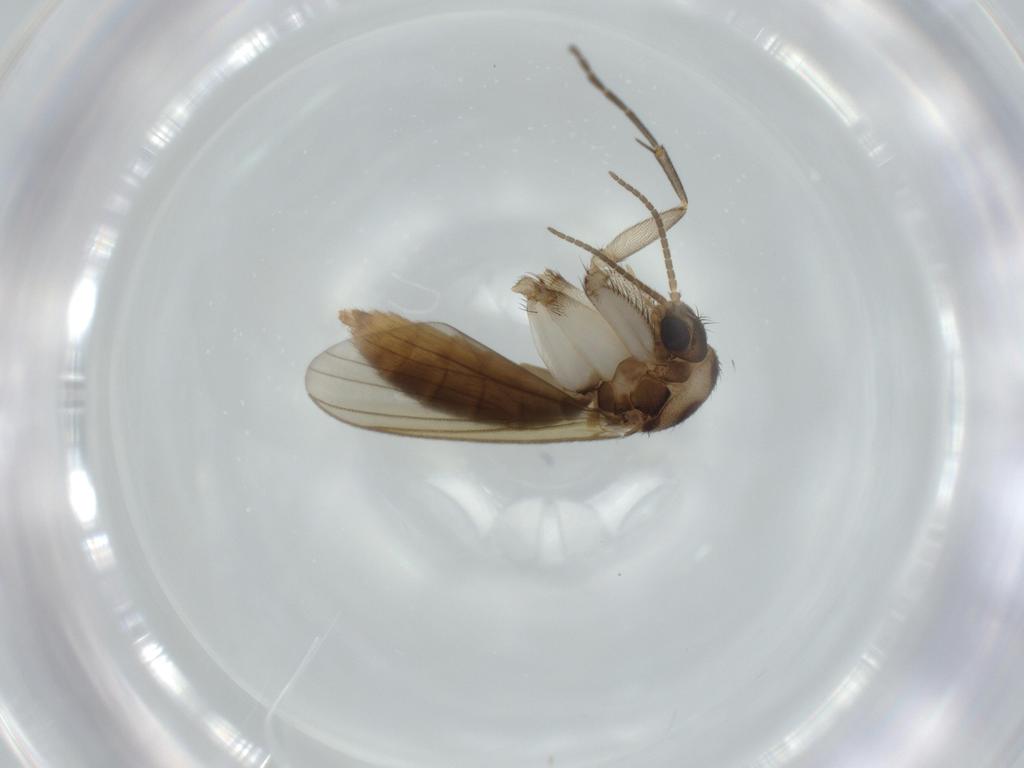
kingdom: Animalia
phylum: Arthropoda
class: Insecta
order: Diptera
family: Mycetophilidae
